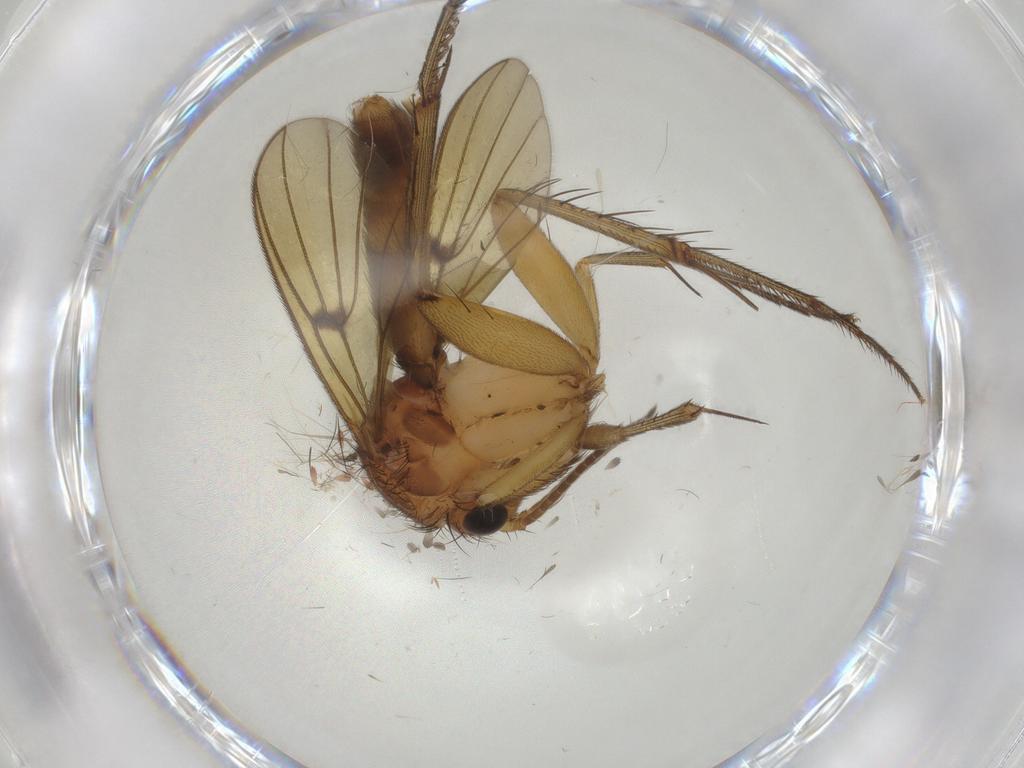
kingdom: Animalia
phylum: Arthropoda
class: Insecta
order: Diptera
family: Mycetophilidae
